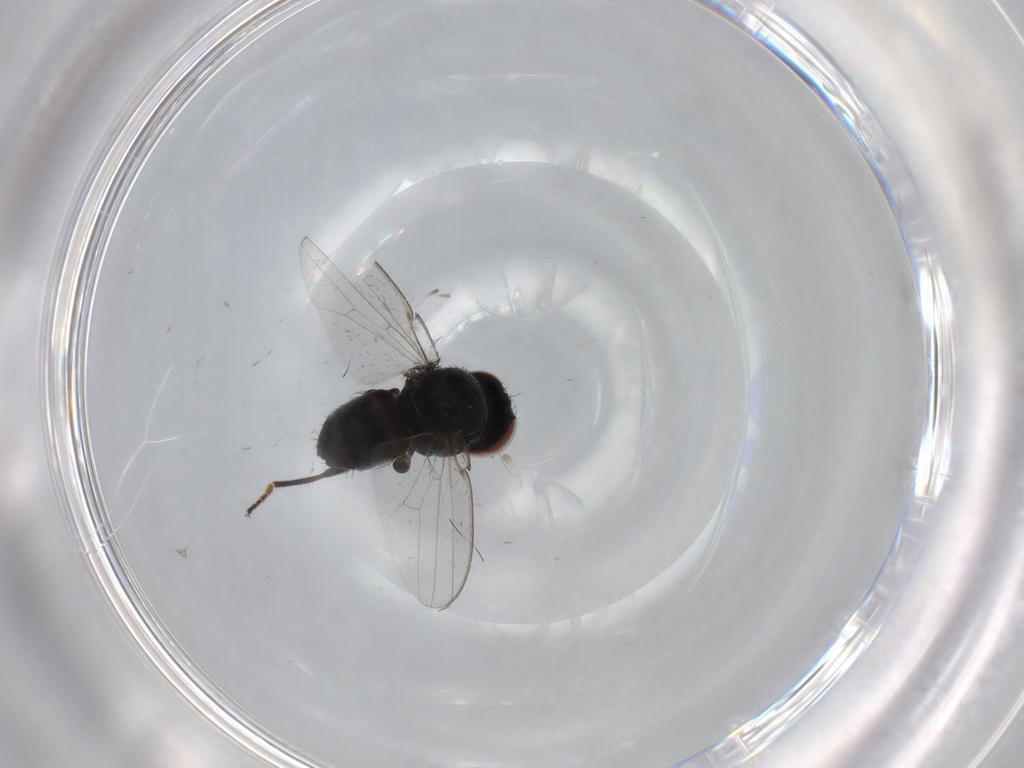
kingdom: Animalia
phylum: Arthropoda
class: Insecta
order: Diptera
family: Milichiidae
